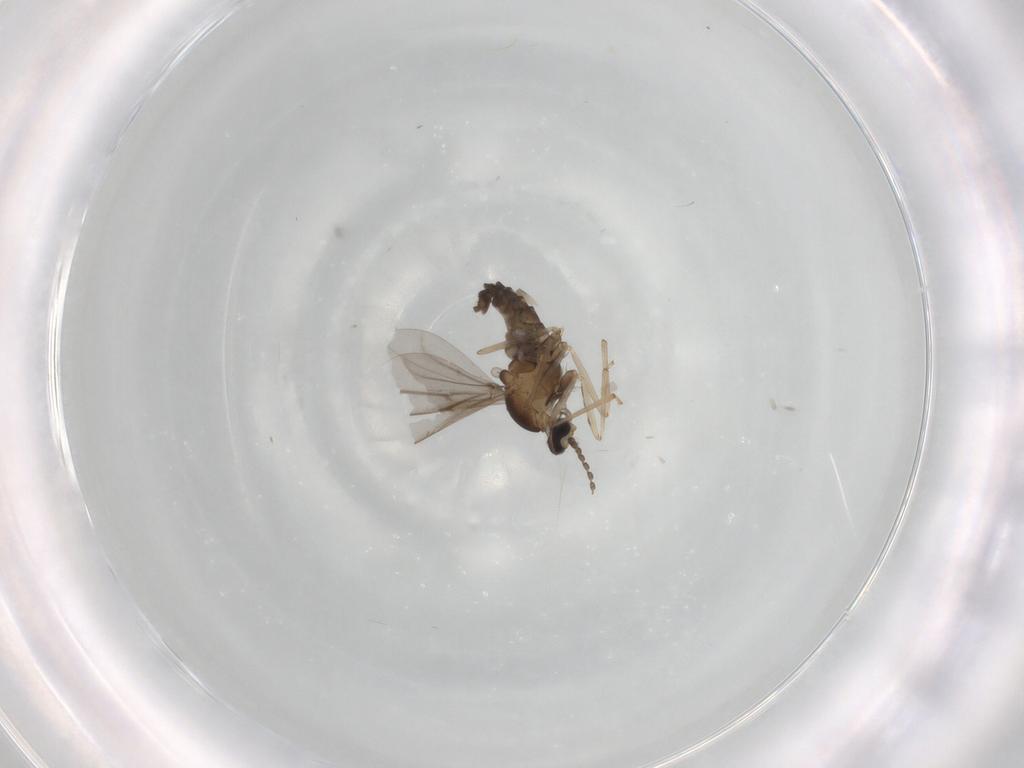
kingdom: Animalia
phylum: Arthropoda
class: Insecta
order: Diptera
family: Cecidomyiidae
